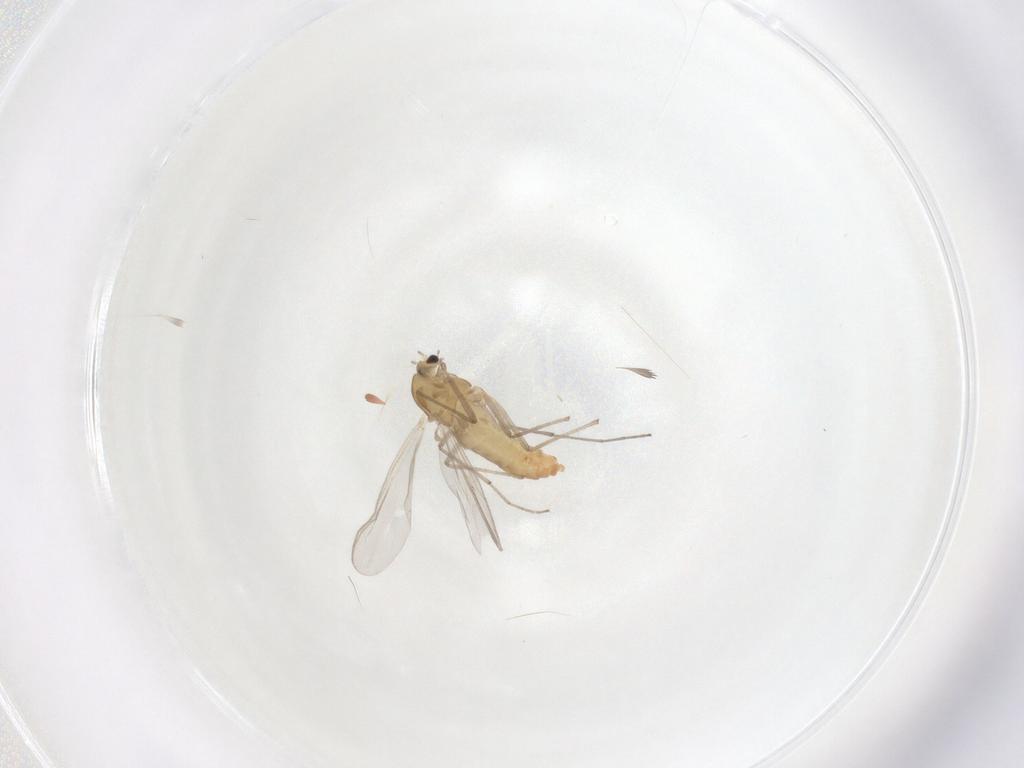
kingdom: Animalia
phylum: Arthropoda
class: Insecta
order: Diptera
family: Chironomidae
